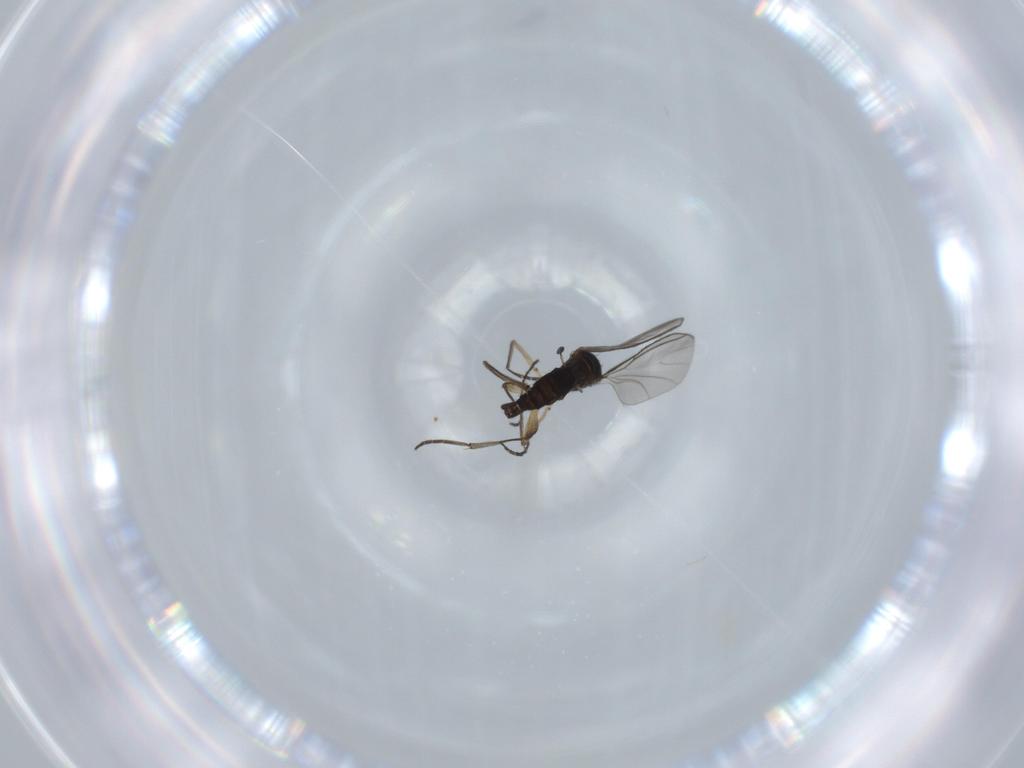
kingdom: Animalia
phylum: Arthropoda
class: Insecta
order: Diptera
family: Sciaridae
